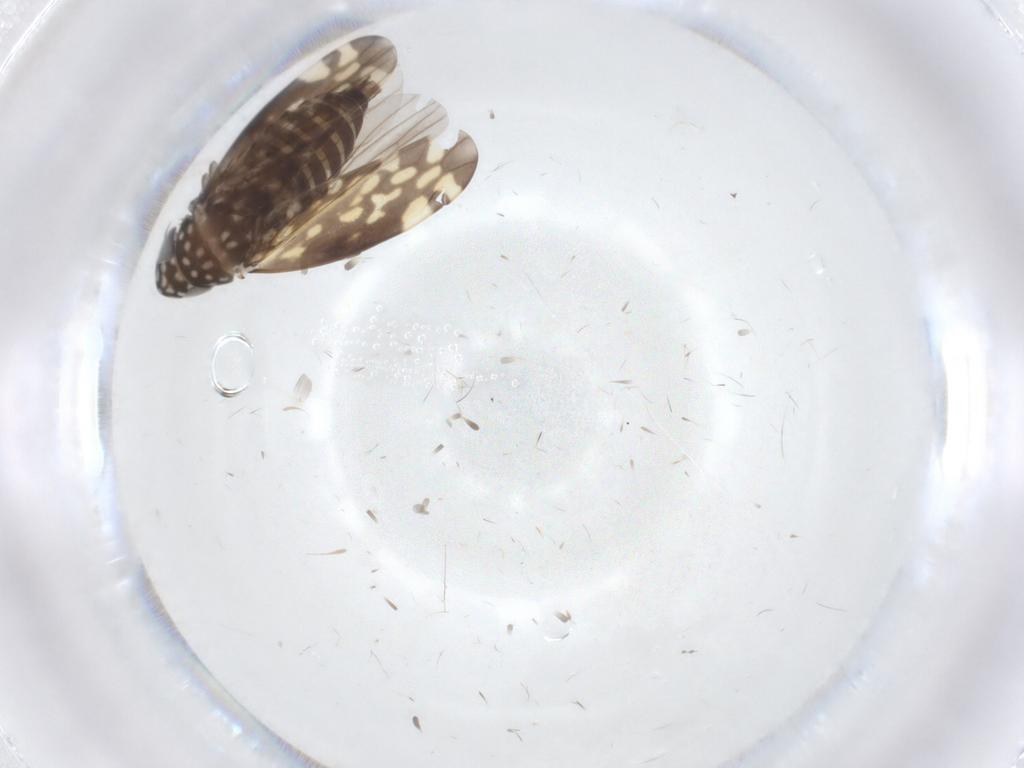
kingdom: Animalia
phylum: Arthropoda
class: Insecta
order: Hemiptera
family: Cicadellidae
